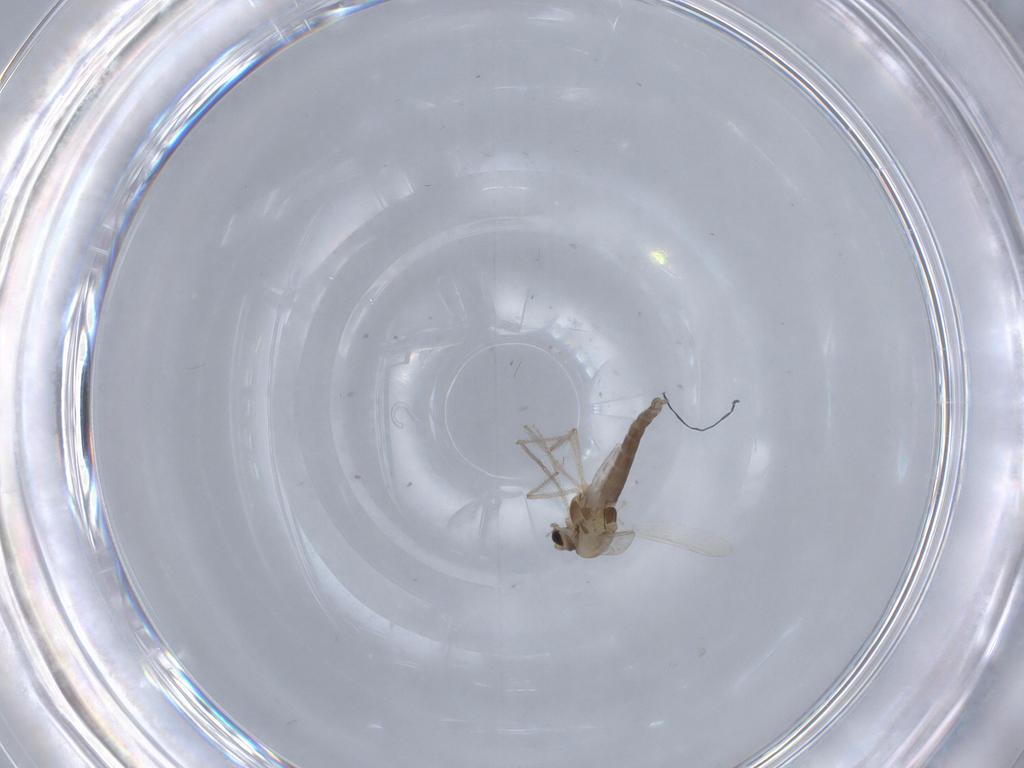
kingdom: Animalia
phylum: Arthropoda
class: Insecta
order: Diptera
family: Chironomidae
